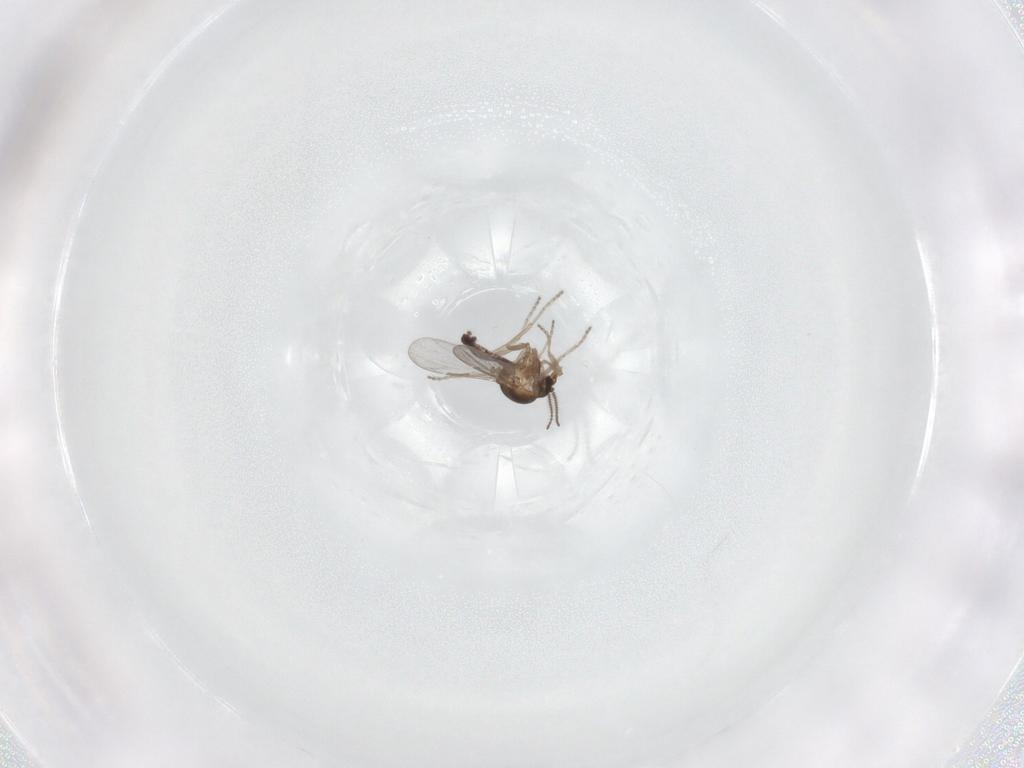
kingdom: Animalia
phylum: Arthropoda
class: Insecta
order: Diptera
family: Ceratopogonidae
